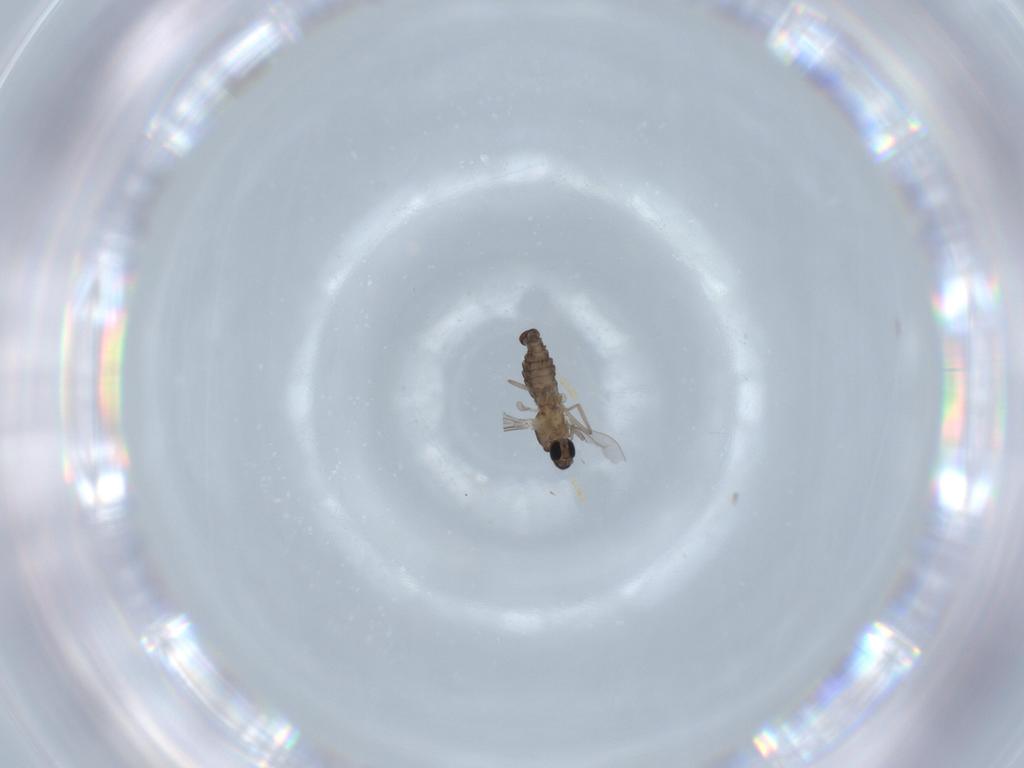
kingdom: Animalia
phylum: Arthropoda
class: Insecta
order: Diptera
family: Cecidomyiidae
